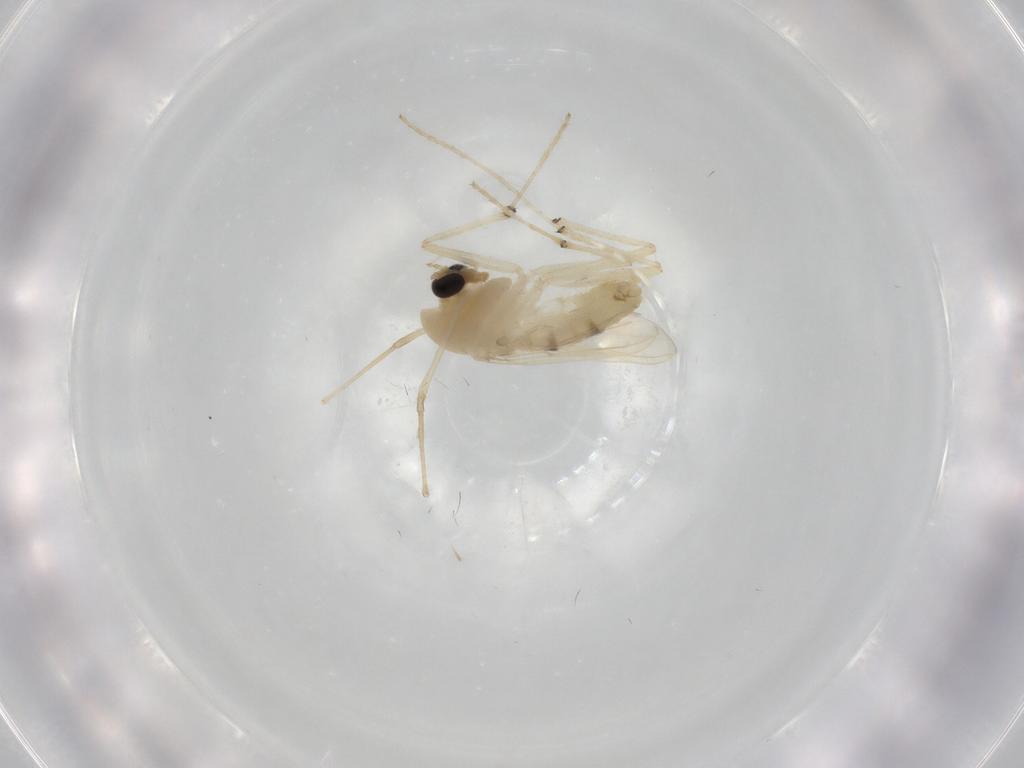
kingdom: Animalia
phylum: Arthropoda
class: Insecta
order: Diptera
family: Chironomidae
